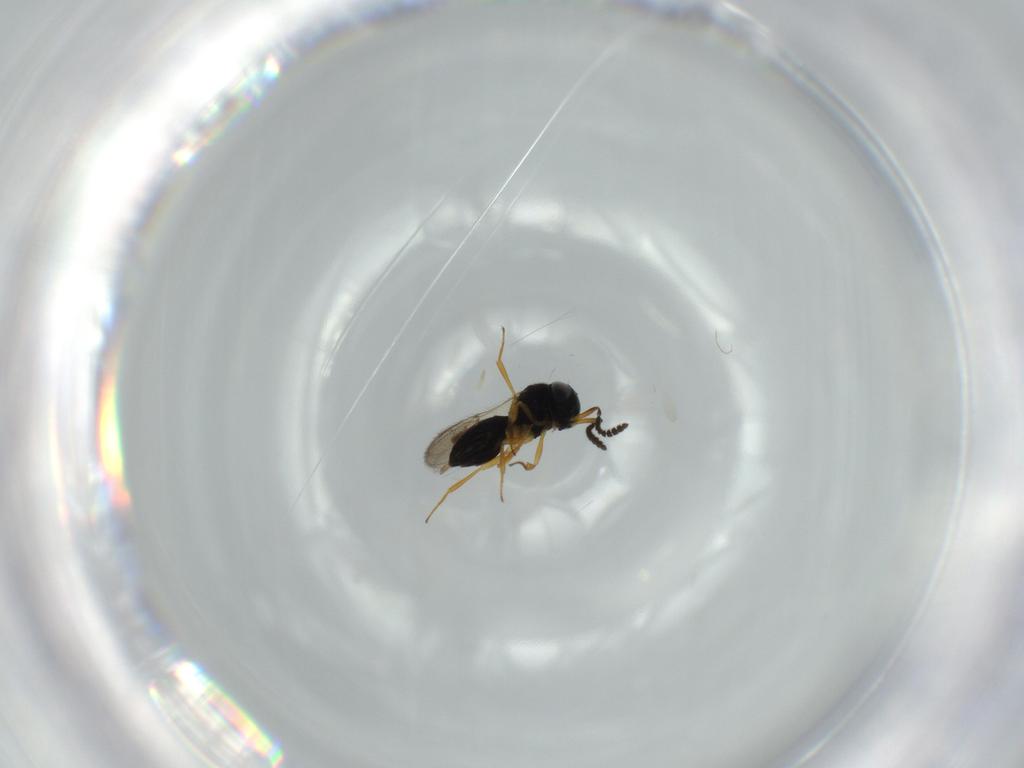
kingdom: Animalia
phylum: Arthropoda
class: Insecta
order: Hymenoptera
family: Scelionidae
